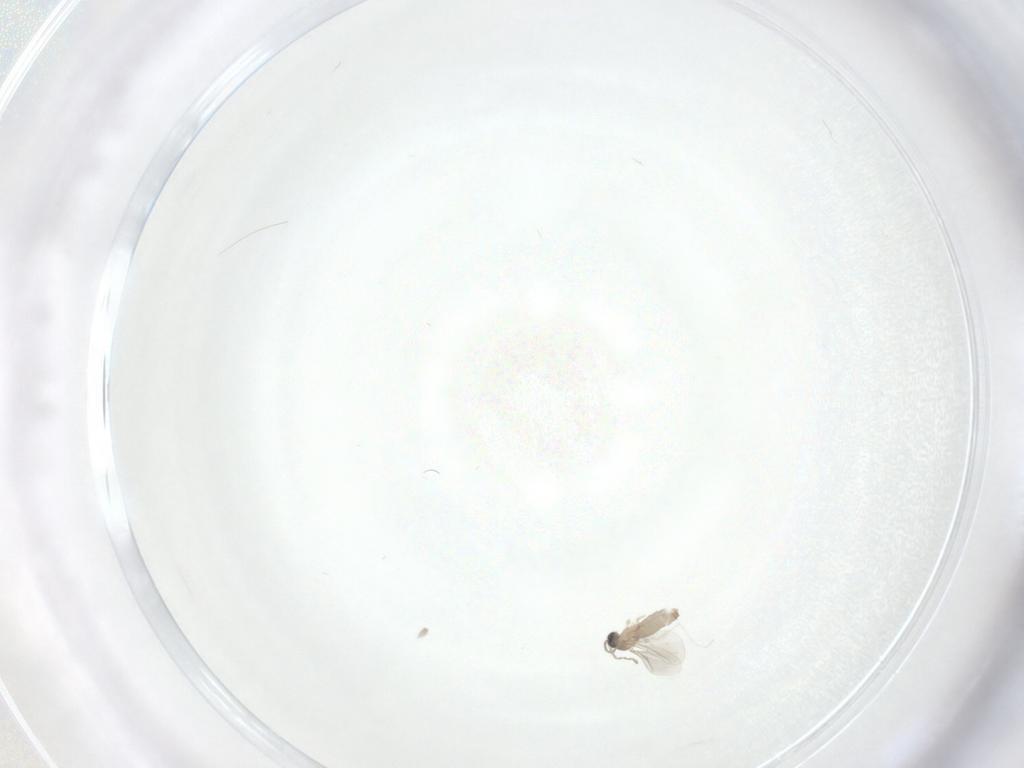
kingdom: Animalia
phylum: Arthropoda
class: Insecta
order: Diptera
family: Cecidomyiidae
